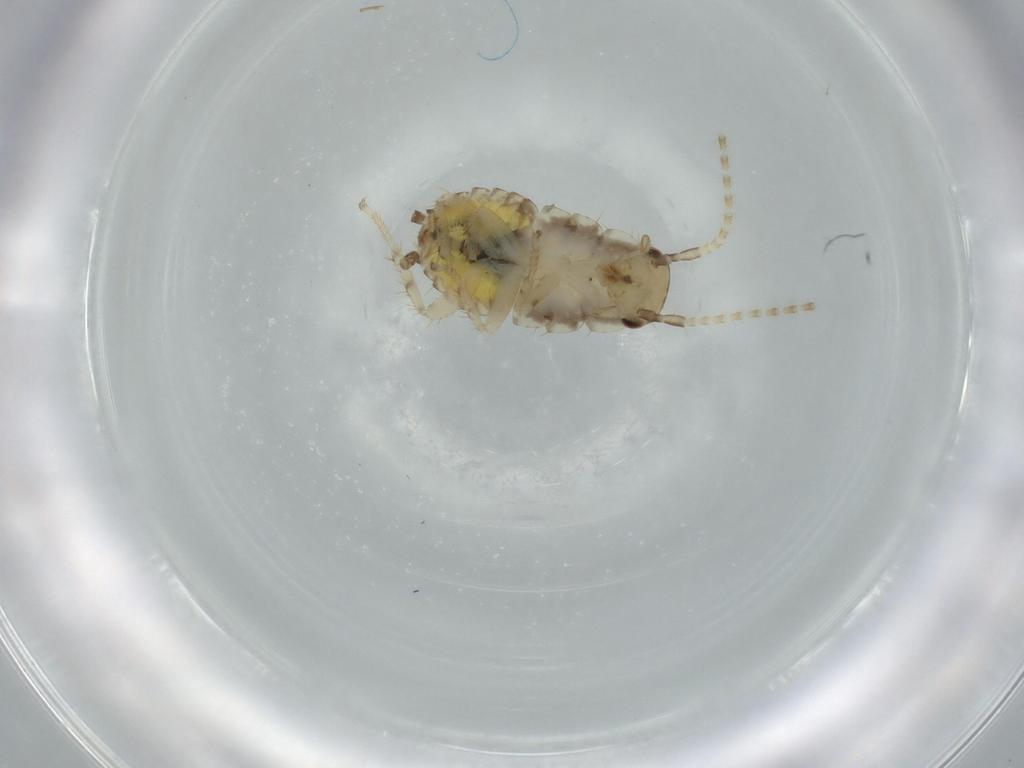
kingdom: Animalia
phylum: Arthropoda
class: Insecta
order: Blattodea
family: Ectobiidae
